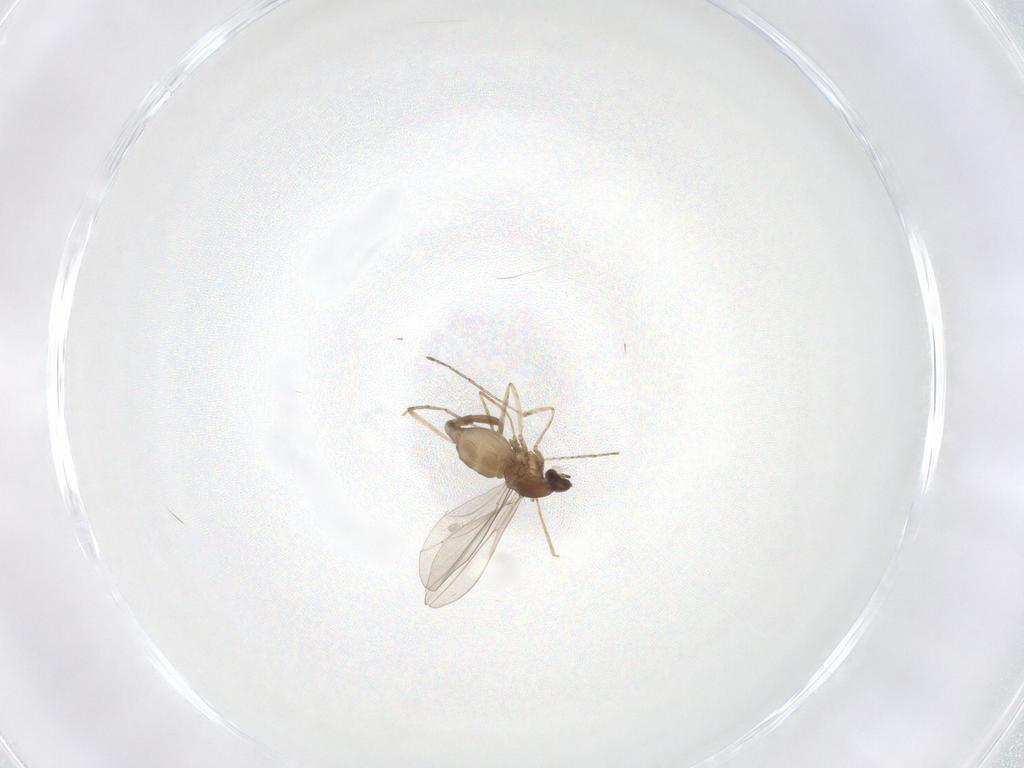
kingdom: Animalia
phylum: Arthropoda
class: Insecta
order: Diptera
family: Cecidomyiidae
